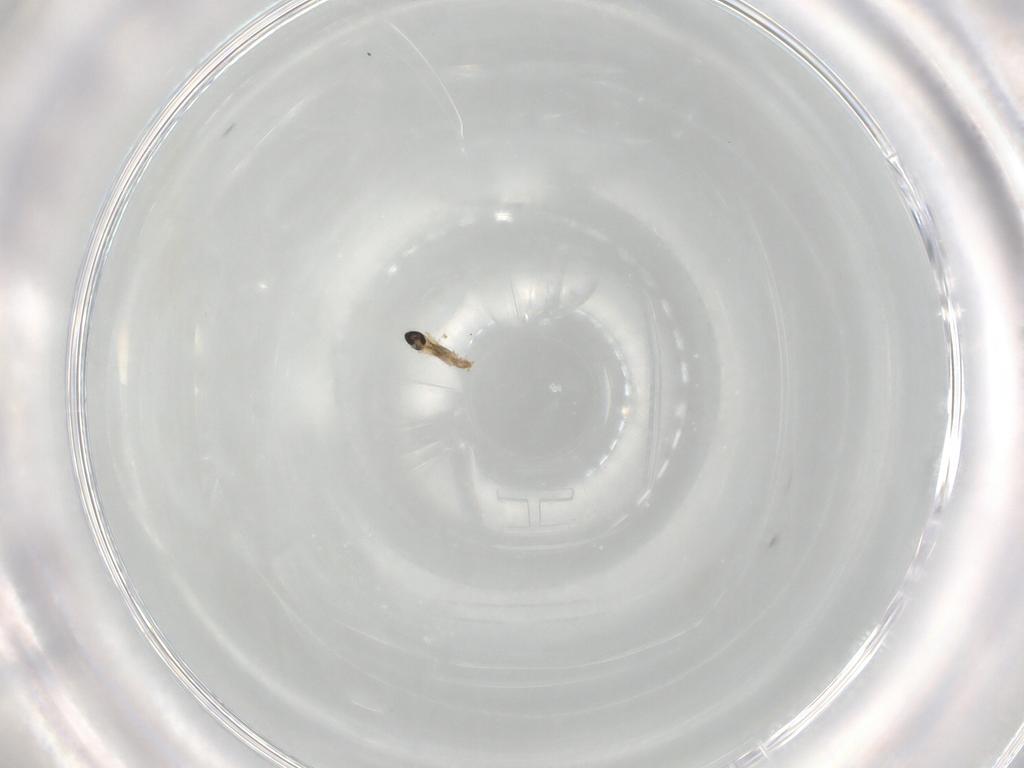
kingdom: Animalia
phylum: Arthropoda
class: Insecta
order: Diptera
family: Cecidomyiidae
